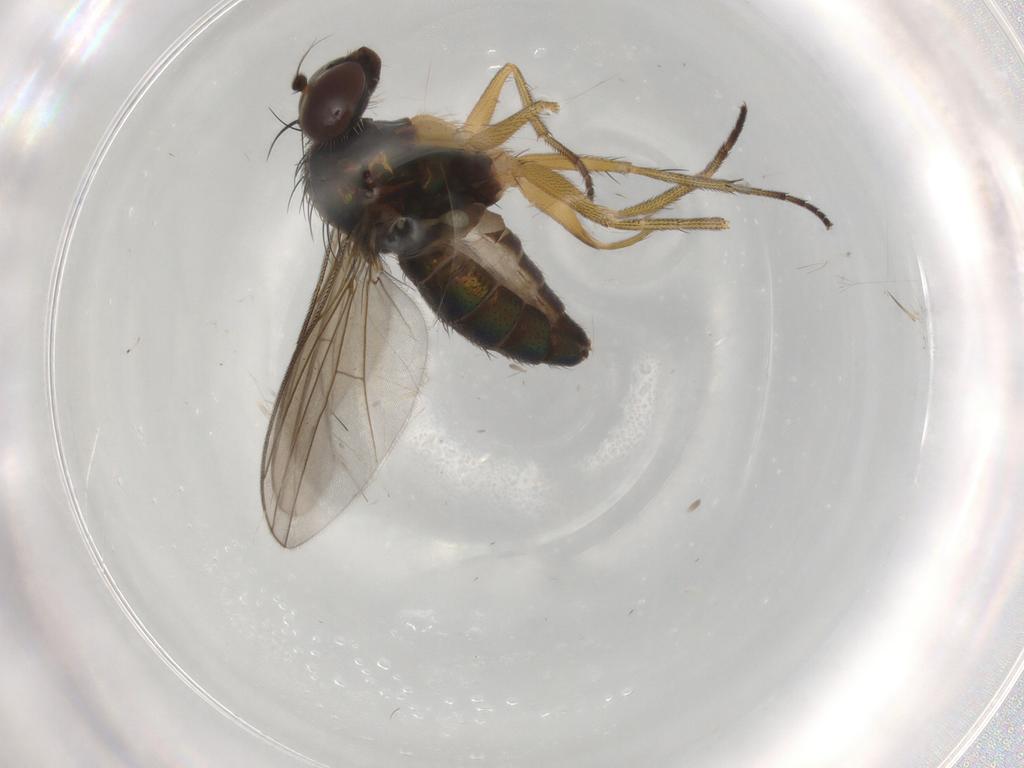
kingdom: Animalia
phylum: Arthropoda
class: Insecta
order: Diptera
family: Dolichopodidae
